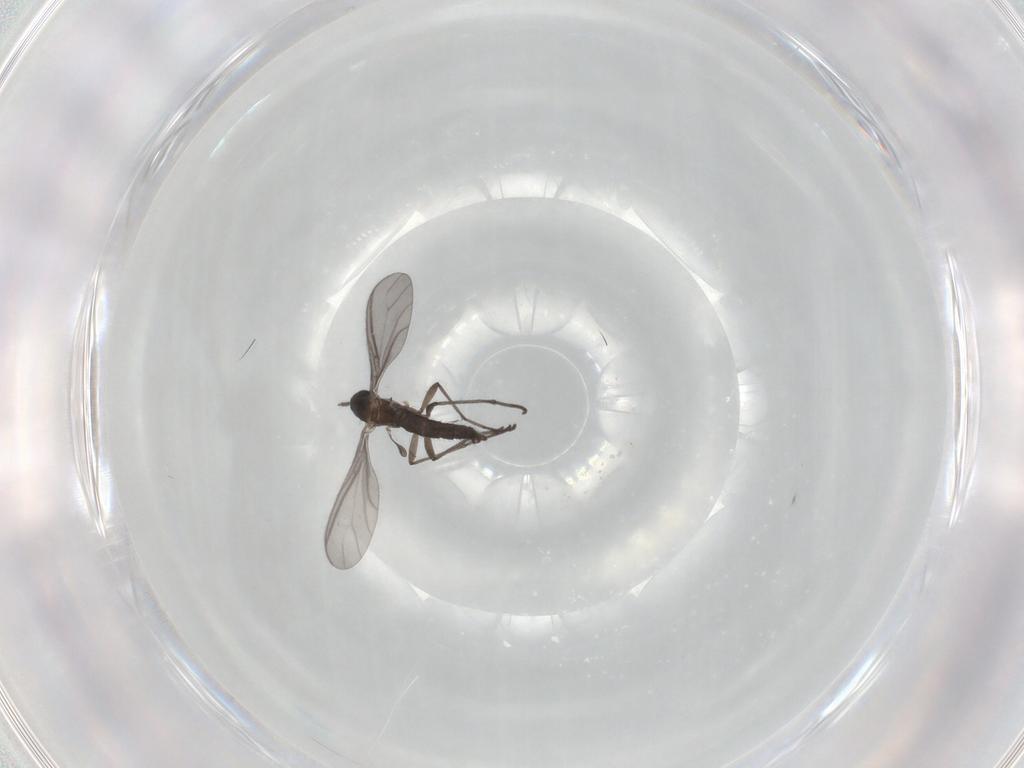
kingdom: Animalia
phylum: Arthropoda
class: Insecta
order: Diptera
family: Sciaridae
